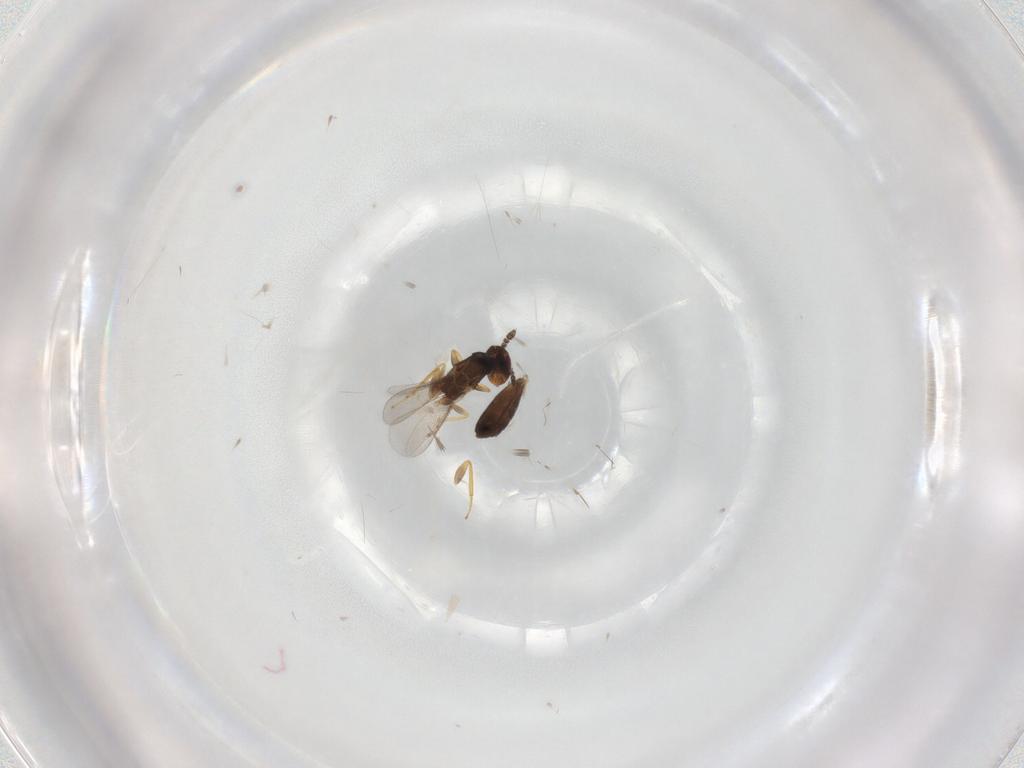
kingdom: Animalia
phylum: Arthropoda
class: Insecta
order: Hymenoptera
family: Eulophidae
